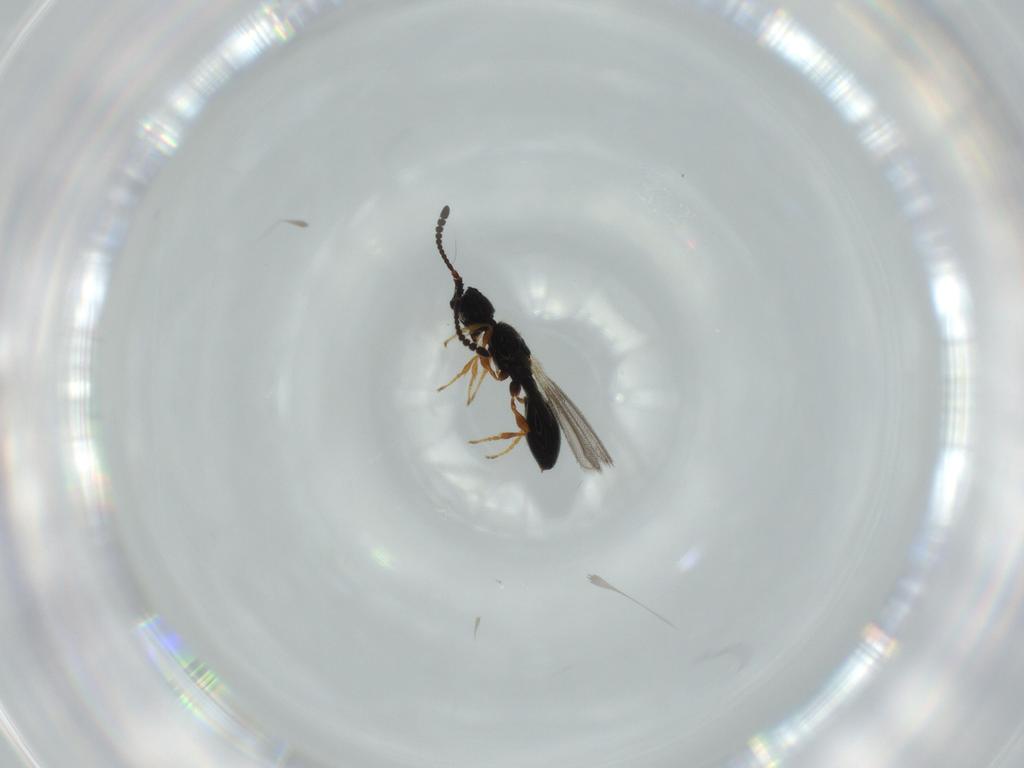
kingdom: Animalia
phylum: Arthropoda
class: Insecta
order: Hymenoptera
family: Diapriidae
